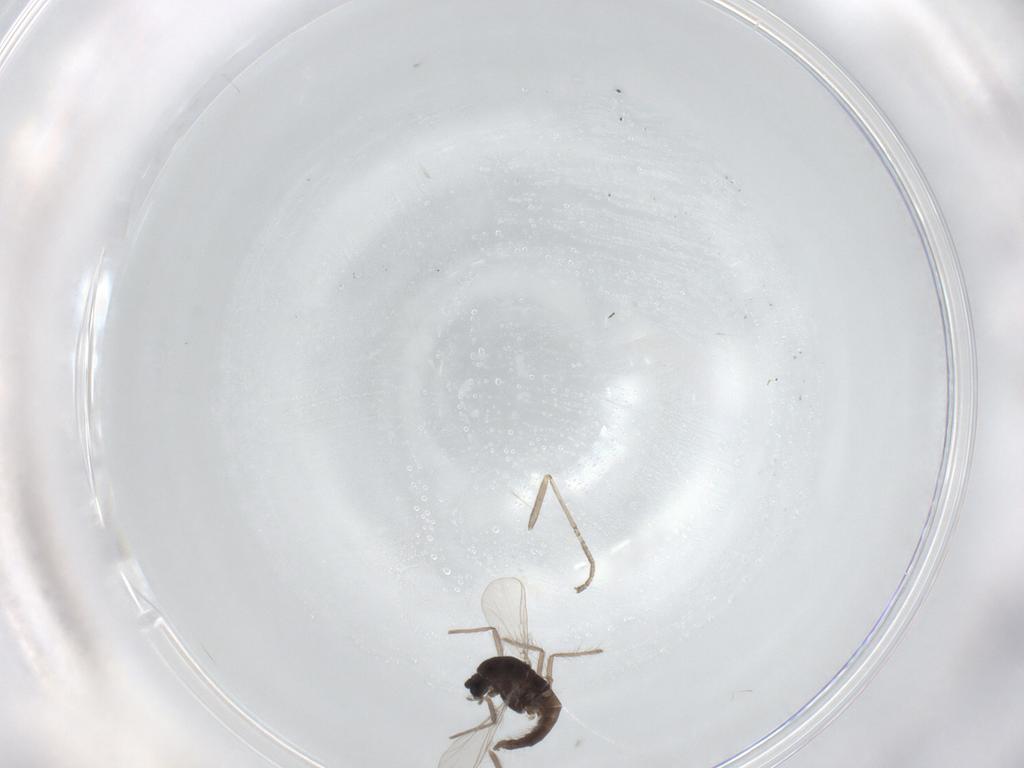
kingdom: Animalia
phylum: Arthropoda
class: Insecta
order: Diptera
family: Chironomidae
